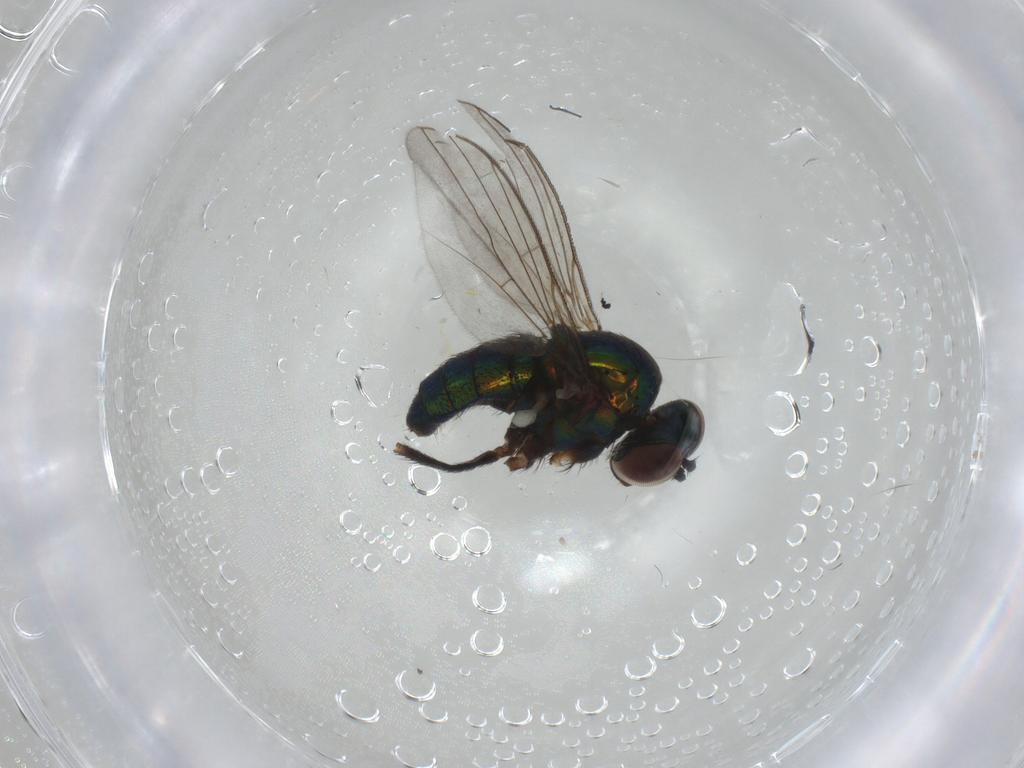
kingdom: Animalia
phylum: Arthropoda
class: Insecta
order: Diptera
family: Dolichopodidae
